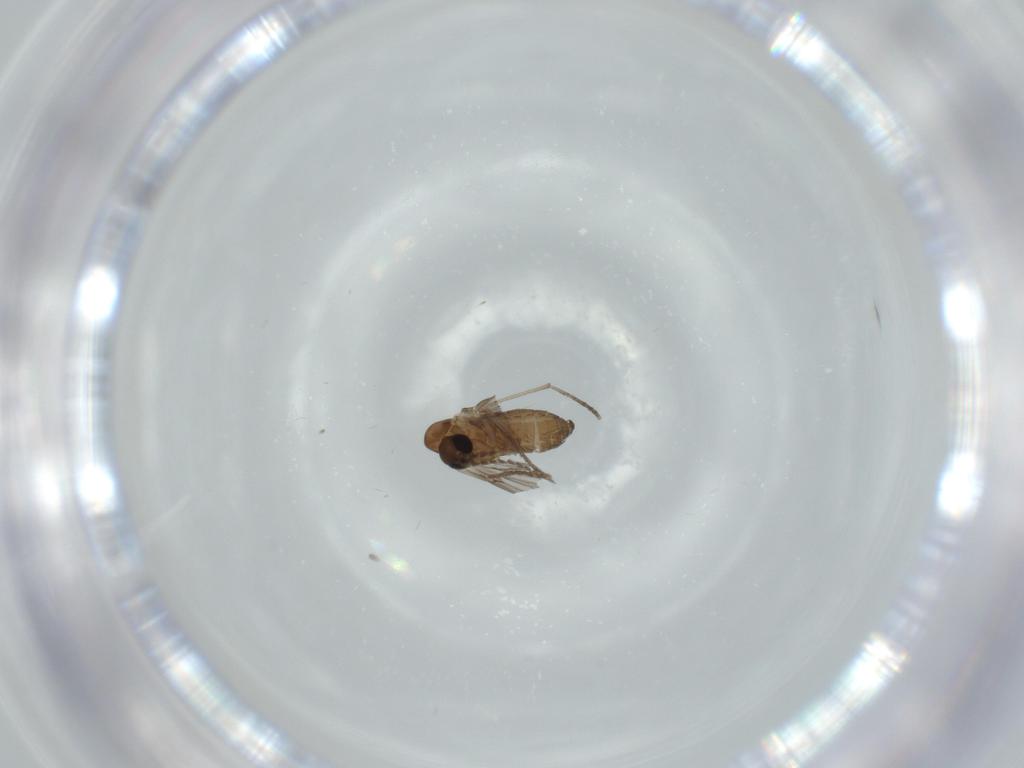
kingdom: Animalia
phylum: Arthropoda
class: Insecta
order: Diptera
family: Psychodidae
